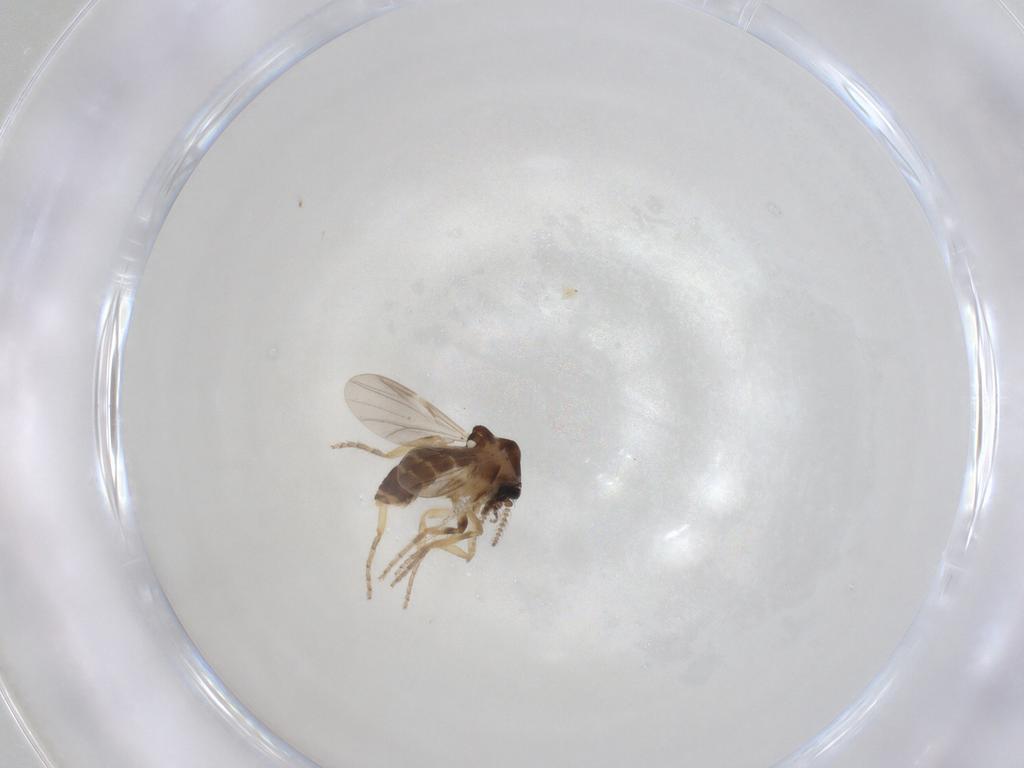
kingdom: Animalia
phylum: Arthropoda
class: Insecta
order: Diptera
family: Ceratopogonidae
